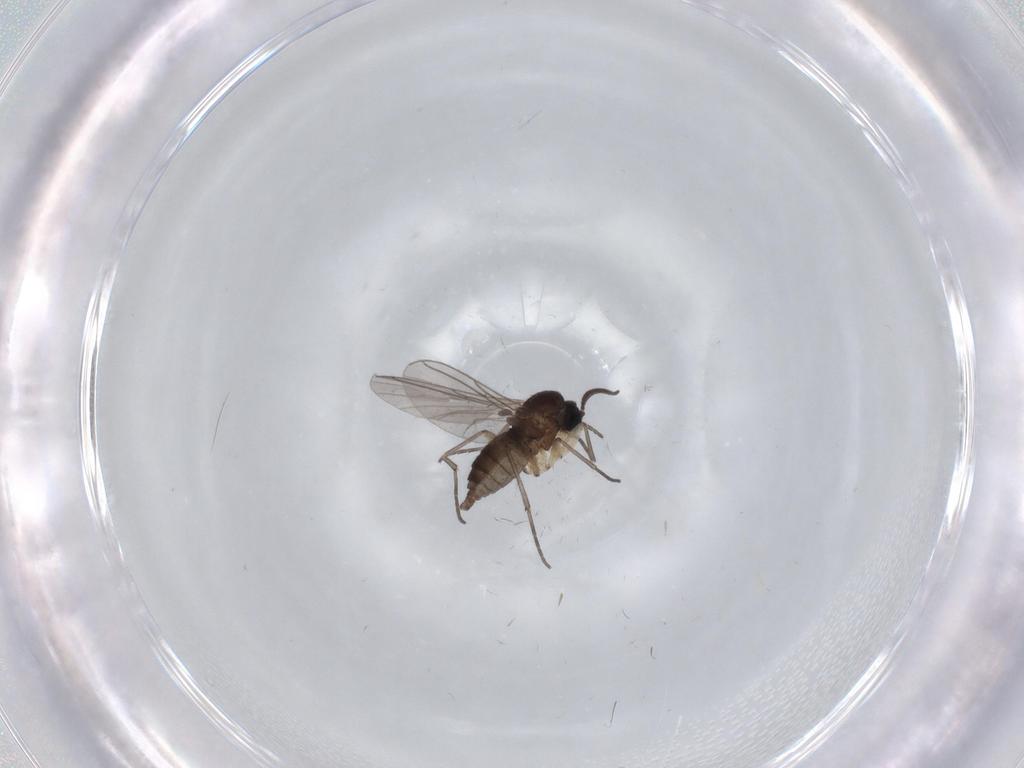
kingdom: Animalia
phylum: Arthropoda
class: Insecta
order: Diptera
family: Sciaridae
